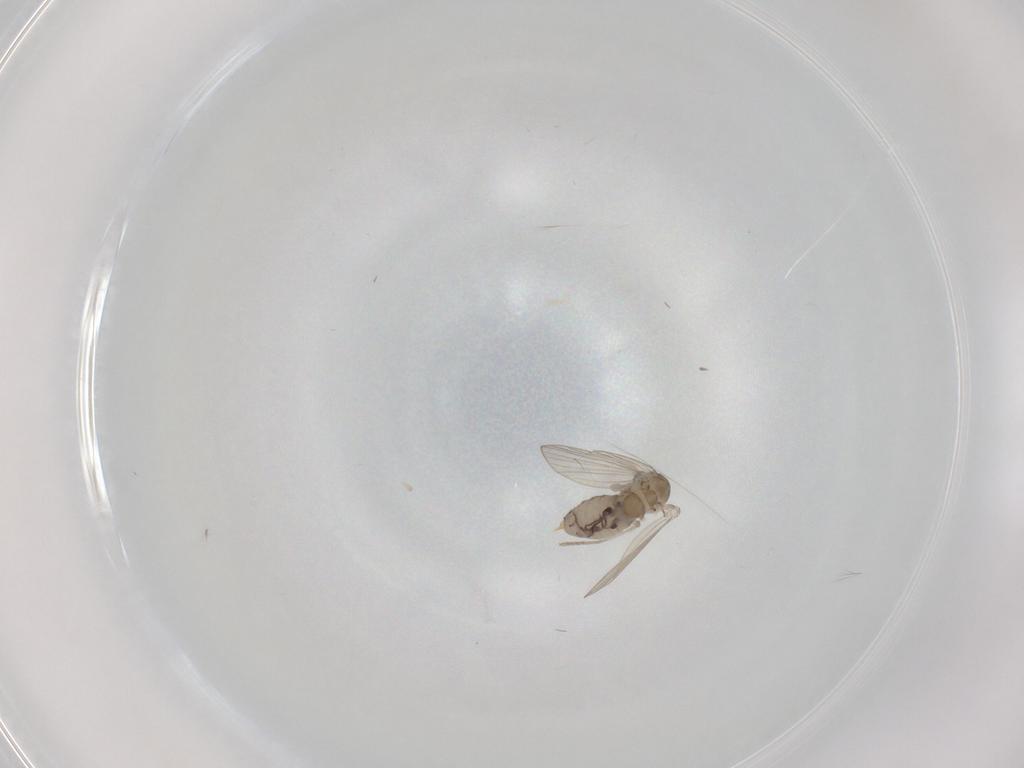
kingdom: Animalia
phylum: Arthropoda
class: Insecta
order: Diptera
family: Psychodidae
